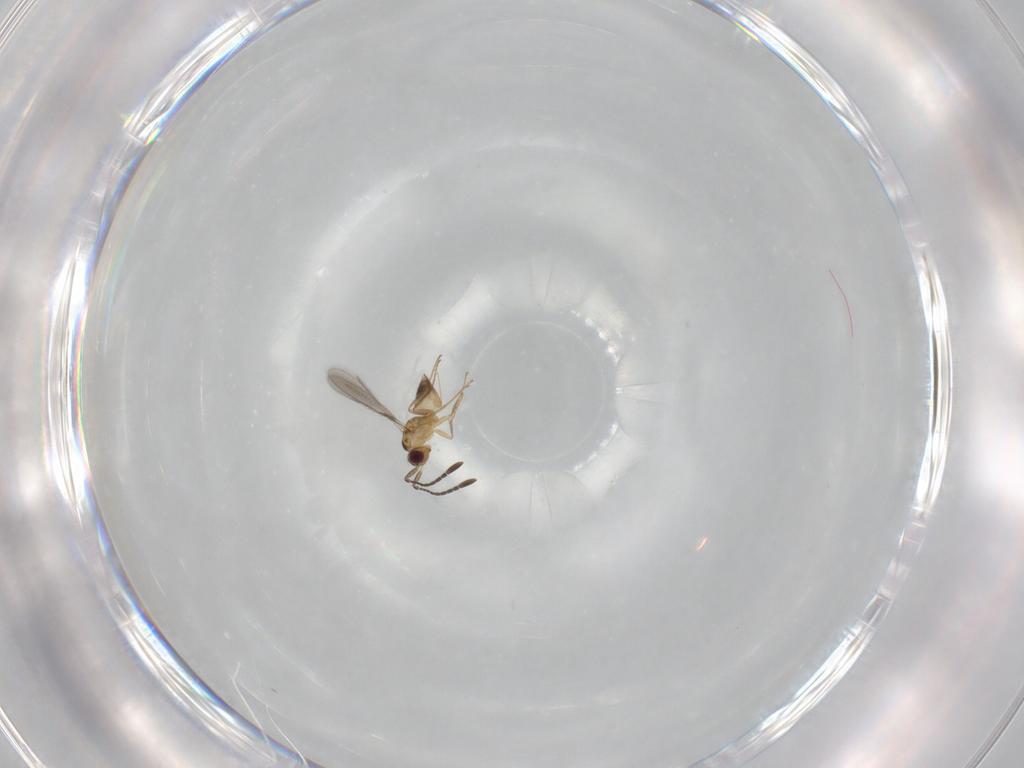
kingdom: Animalia
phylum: Arthropoda
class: Insecta
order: Hymenoptera
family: Mymaridae
